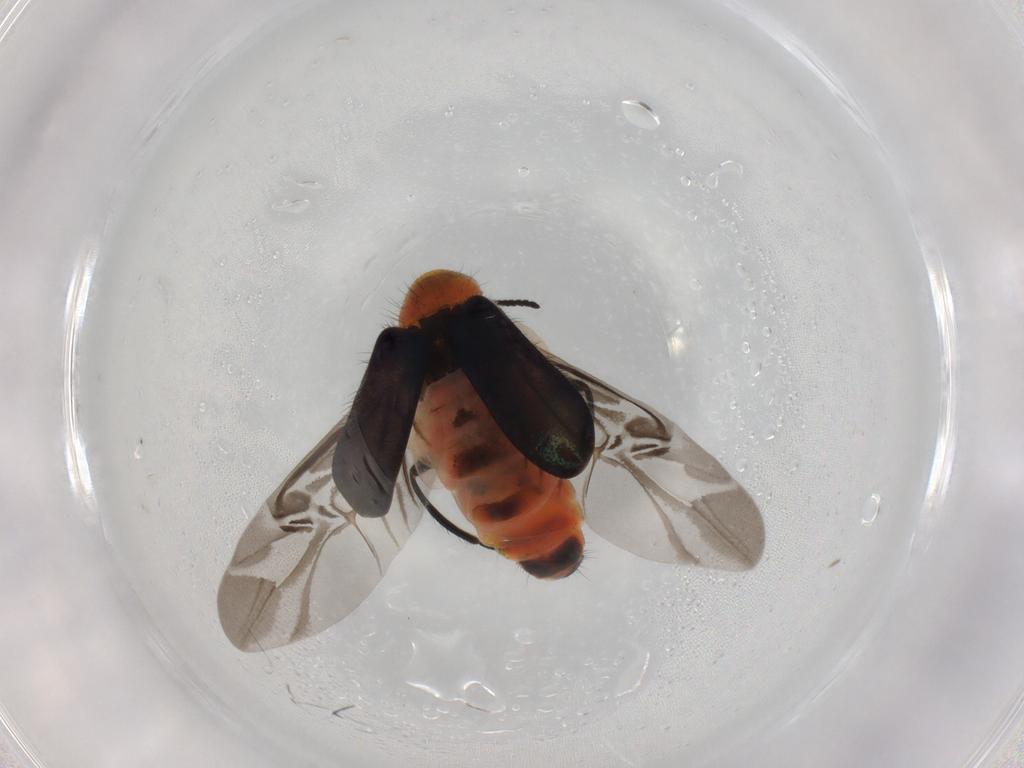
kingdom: Animalia
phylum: Arthropoda
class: Insecta
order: Coleoptera
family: Melyridae
